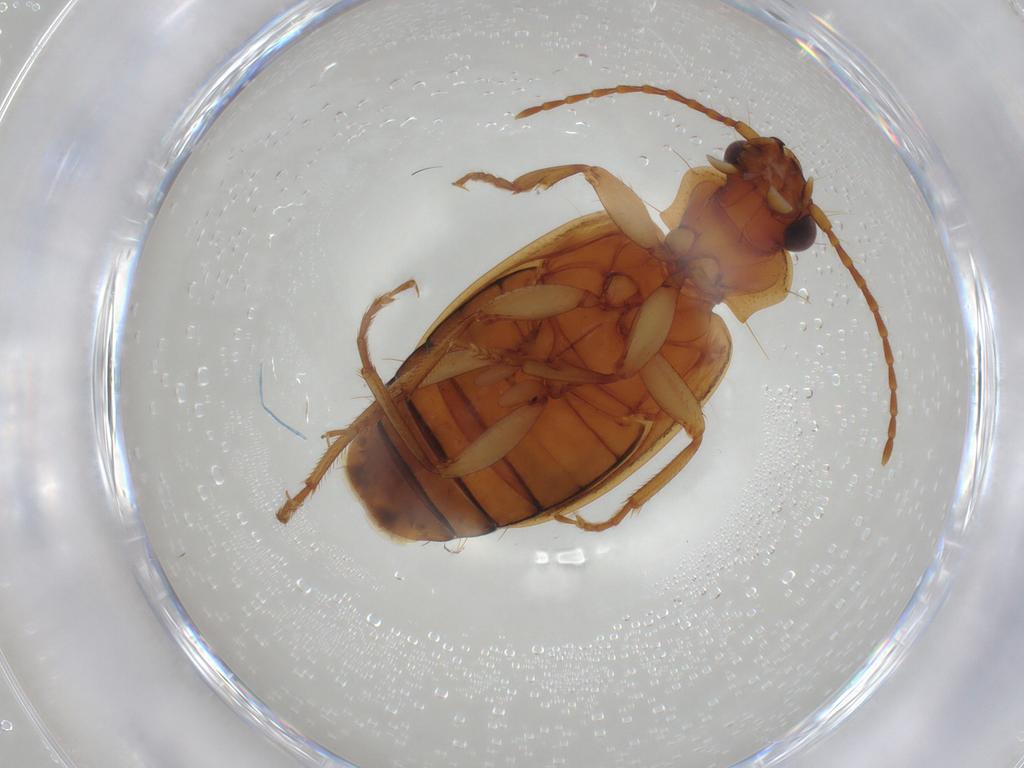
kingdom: Animalia
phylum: Arthropoda
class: Insecta
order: Coleoptera
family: Carabidae
